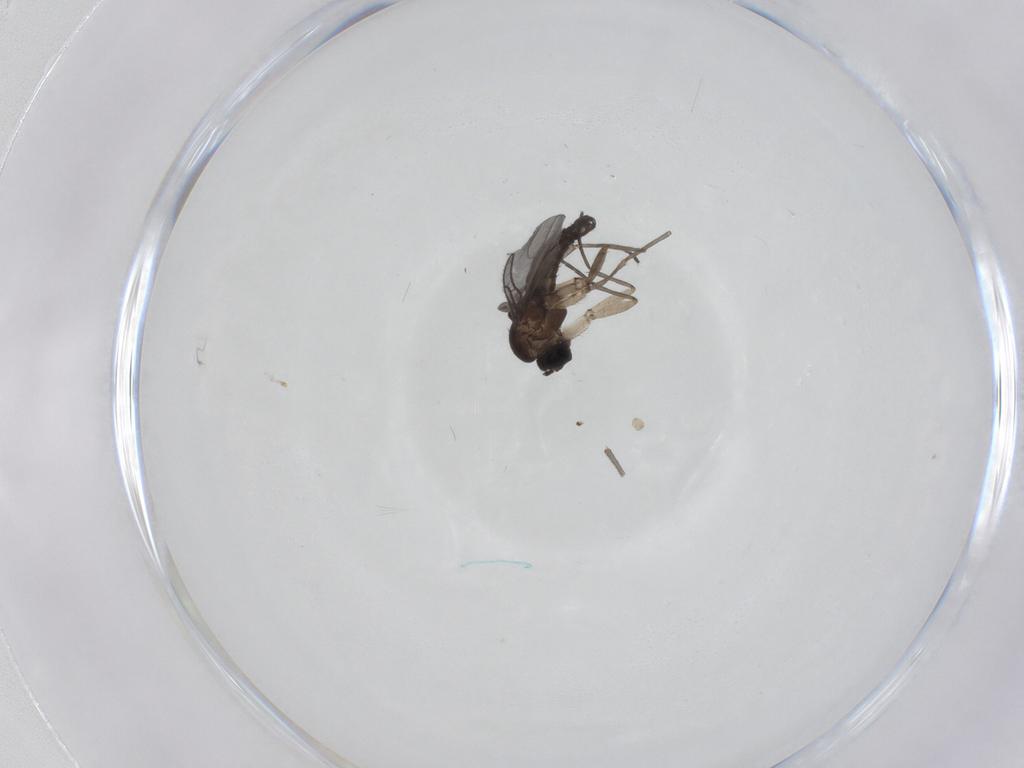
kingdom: Animalia
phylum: Arthropoda
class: Insecta
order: Diptera
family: Sciaridae
